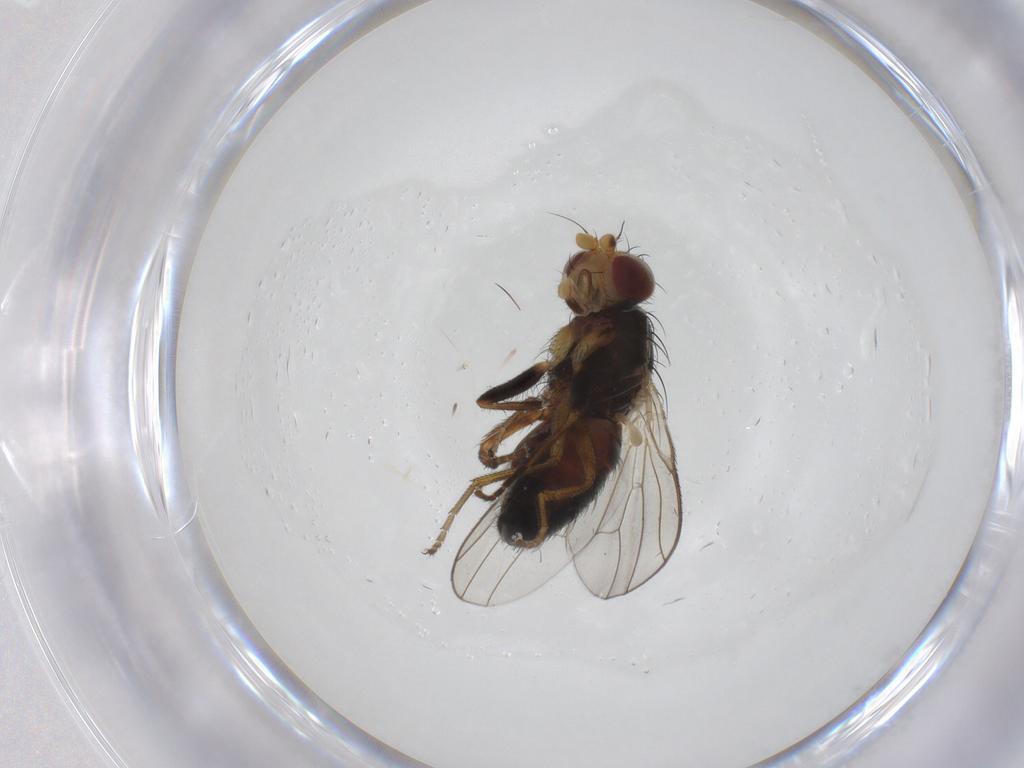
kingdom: Animalia
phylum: Arthropoda
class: Insecta
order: Diptera
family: Heleomyzidae
